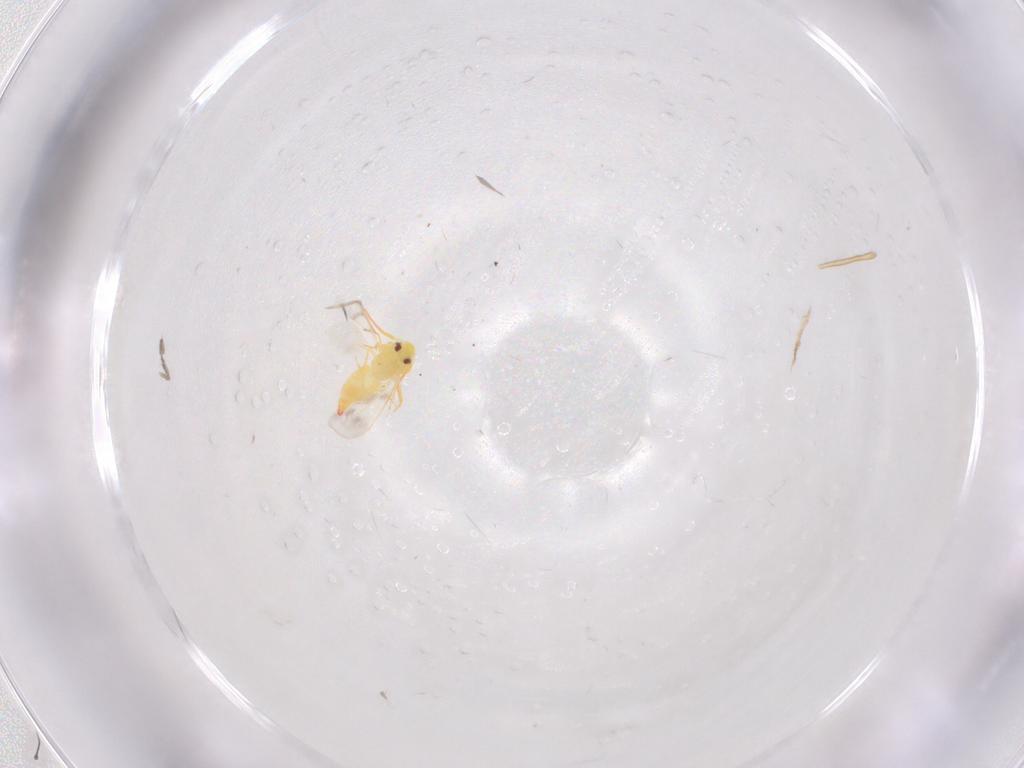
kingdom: Animalia
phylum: Arthropoda
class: Insecta
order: Hemiptera
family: Aleyrodidae
